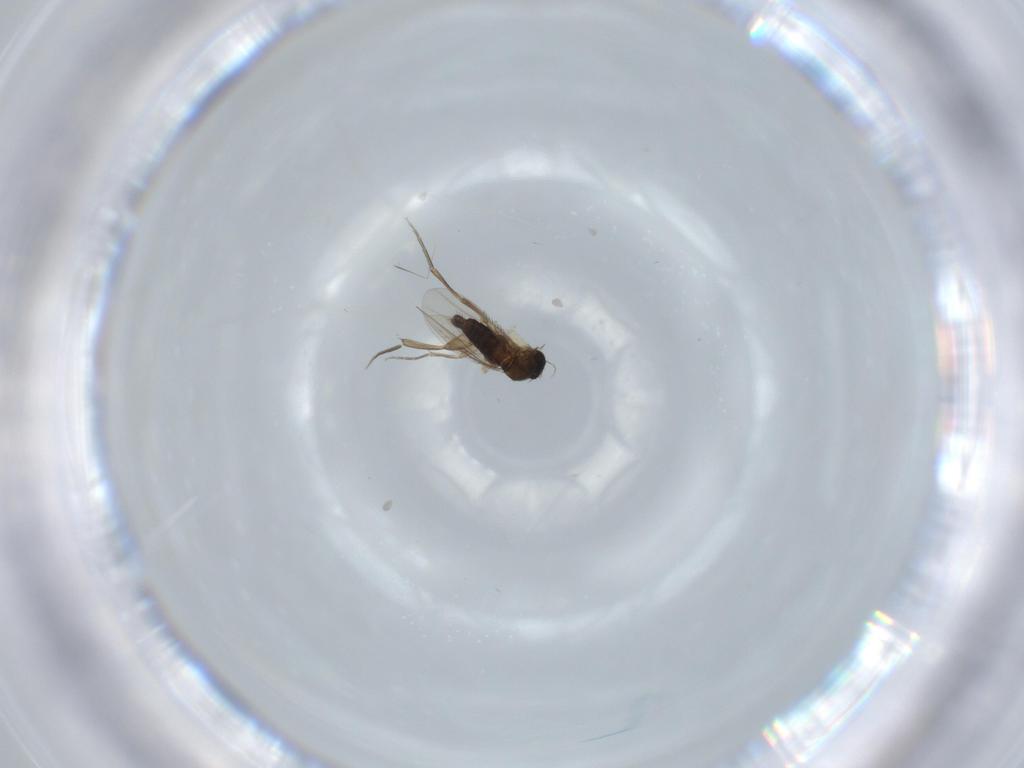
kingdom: Animalia
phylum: Arthropoda
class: Insecta
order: Diptera
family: Phoridae
